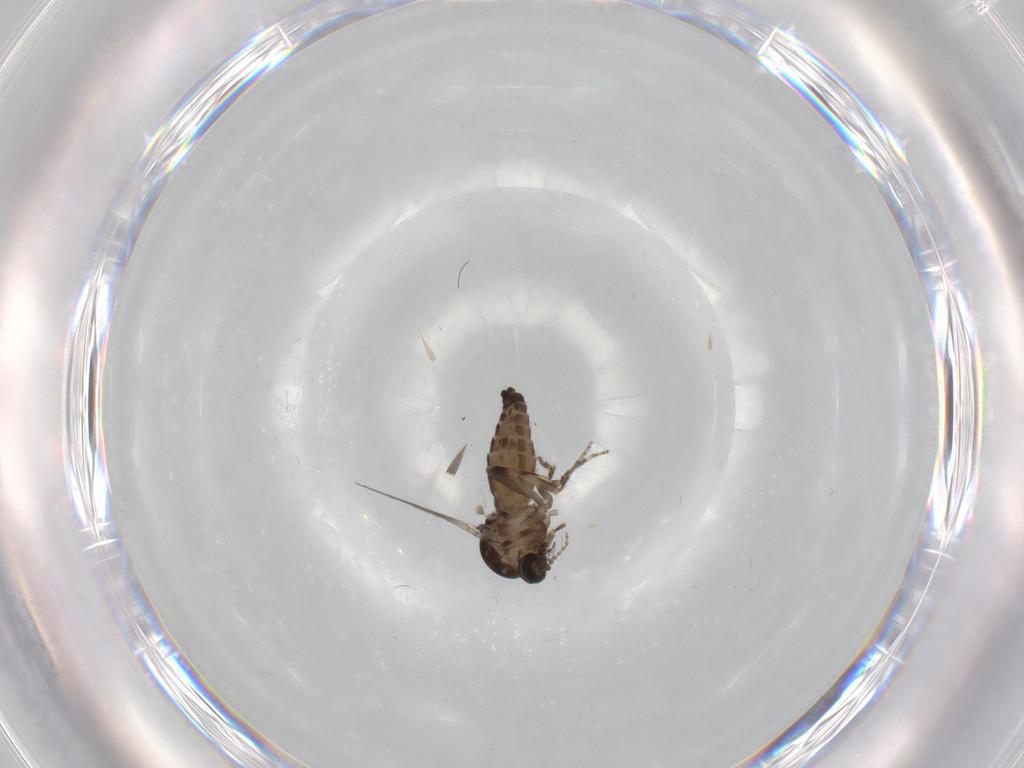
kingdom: Animalia
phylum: Arthropoda
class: Insecta
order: Diptera
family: Ceratopogonidae
